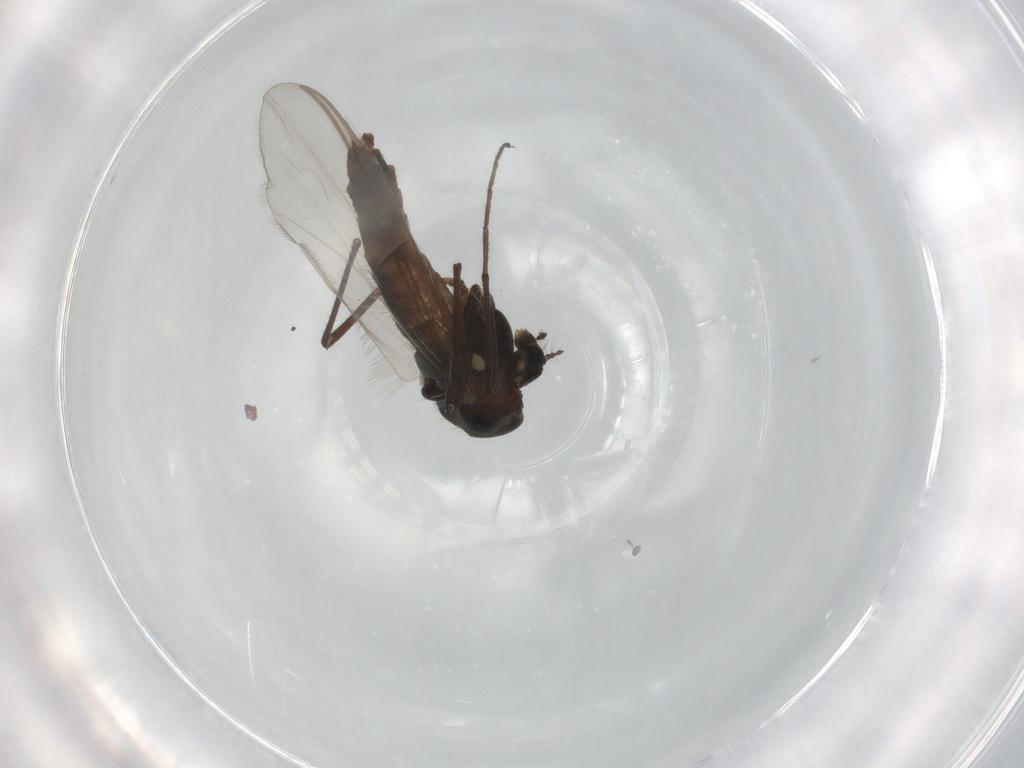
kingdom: Animalia
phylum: Arthropoda
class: Insecta
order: Diptera
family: Chironomidae
